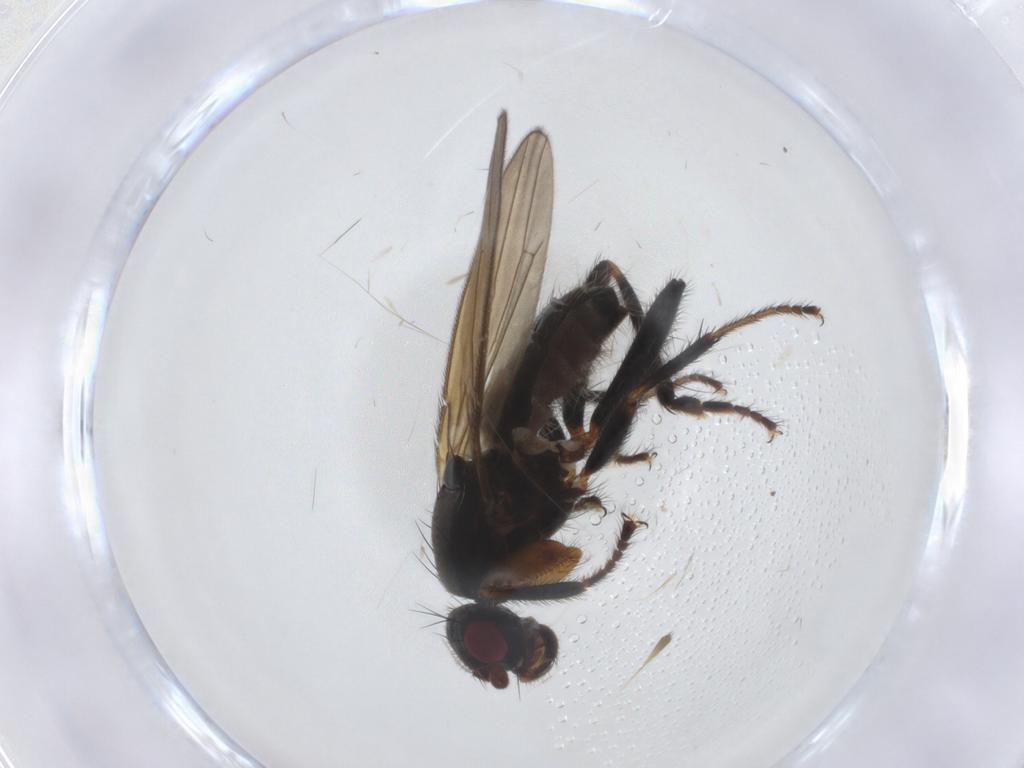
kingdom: Animalia
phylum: Arthropoda
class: Insecta
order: Diptera
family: Sphaeroceridae
